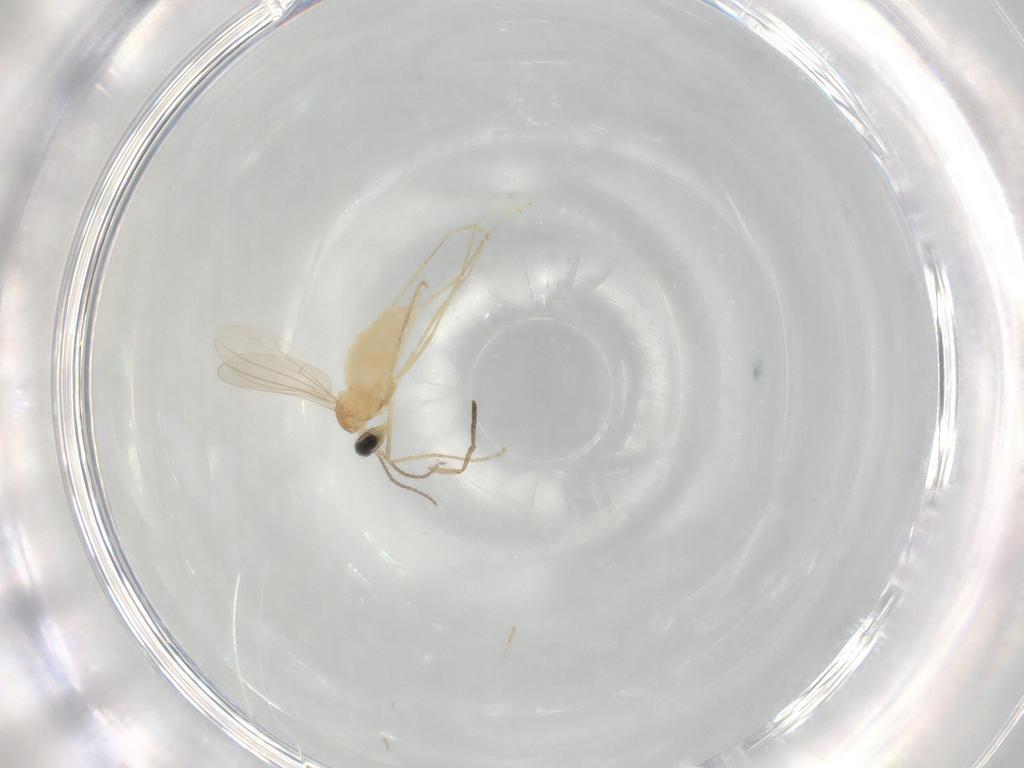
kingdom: Animalia
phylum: Arthropoda
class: Insecta
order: Diptera
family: Cecidomyiidae
